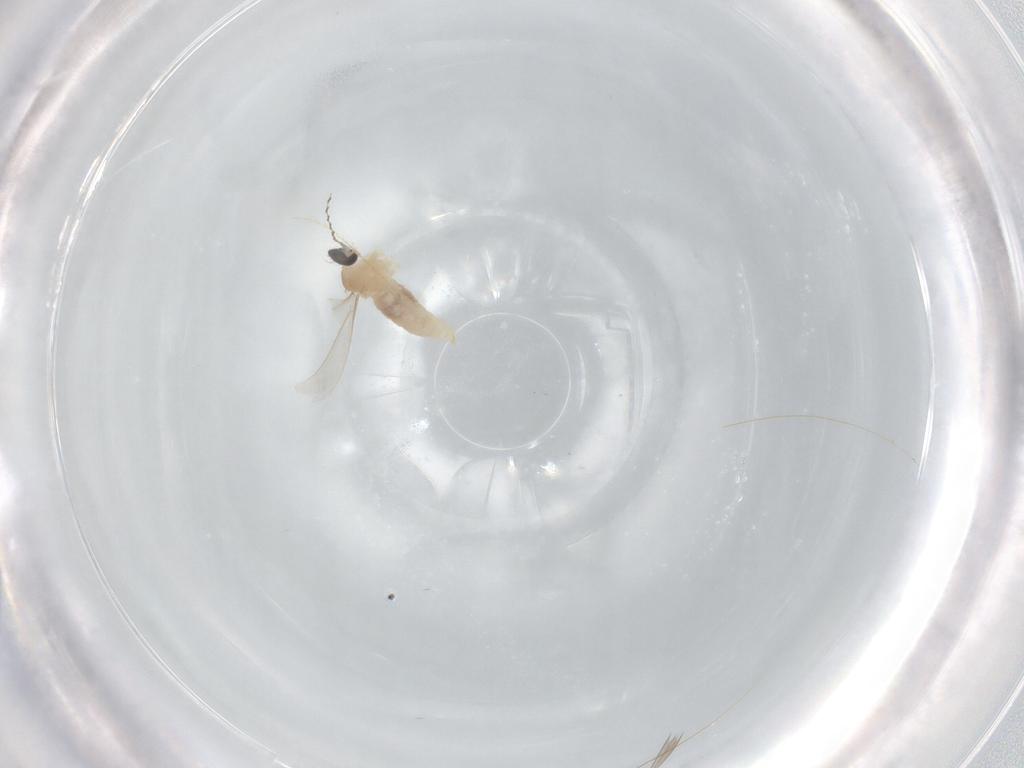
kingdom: Animalia
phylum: Arthropoda
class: Insecta
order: Diptera
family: Cecidomyiidae
